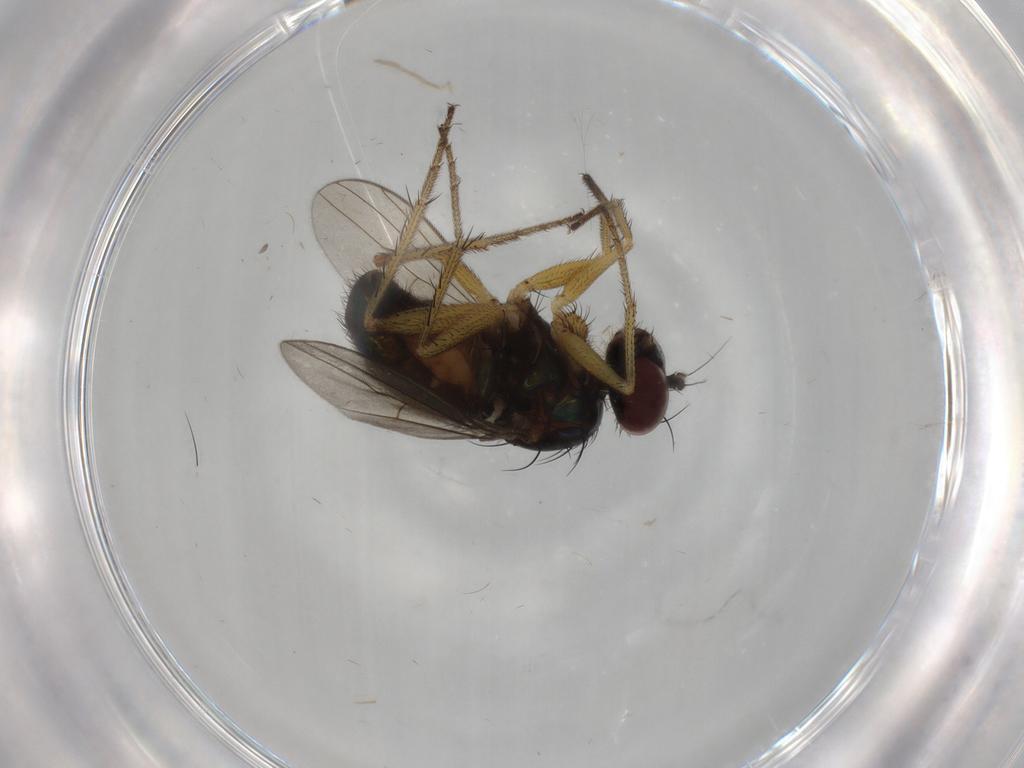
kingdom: Animalia
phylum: Arthropoda
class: Insecta
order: Diptera
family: Dolichopodidae
